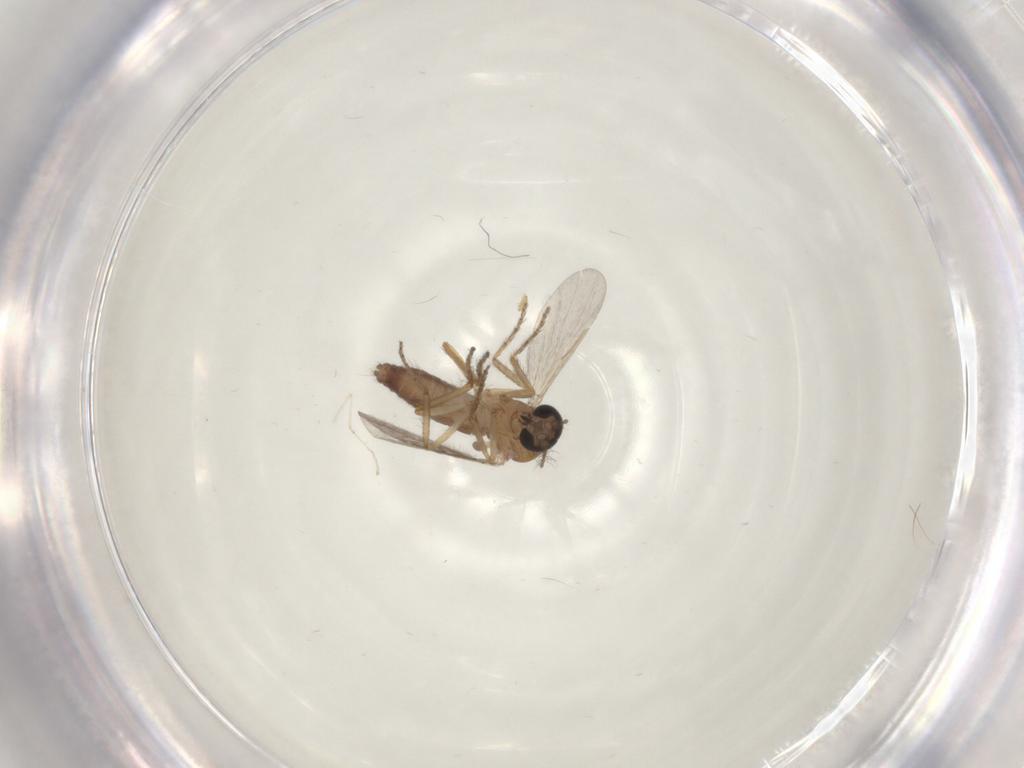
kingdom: Animalia
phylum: Arthropoda
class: Insecta
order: Diptera
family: Ceratopogonidae
